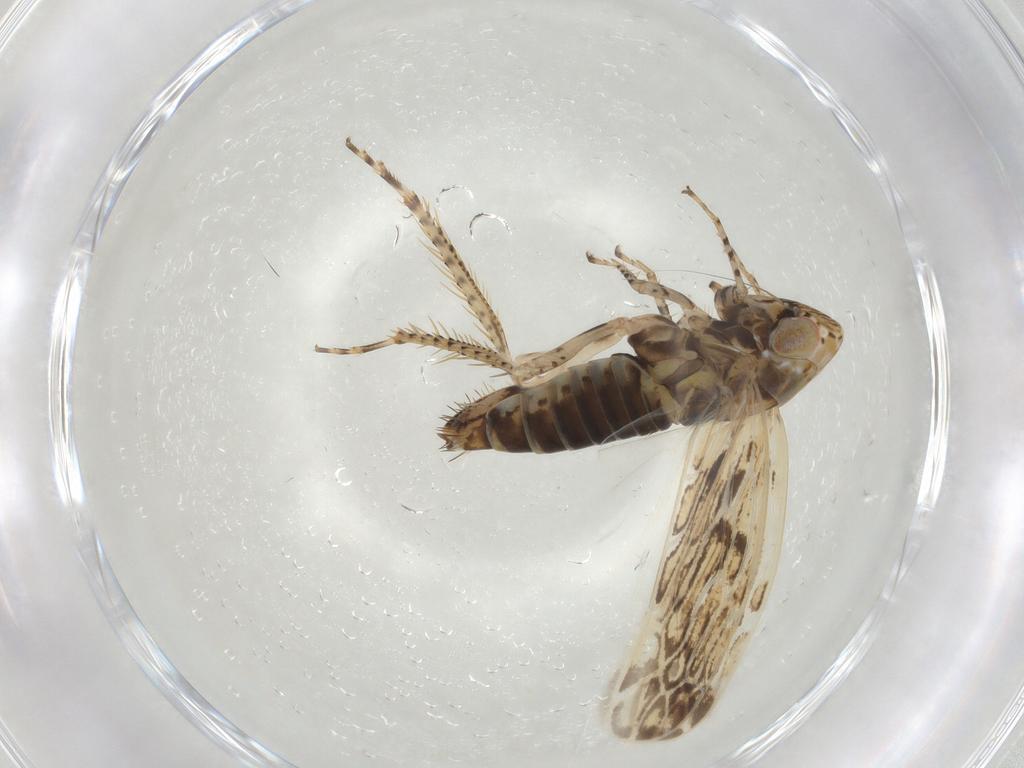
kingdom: Animalia
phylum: Arthropoda
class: Insecta
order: Hemiptera
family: Cicadellidae
